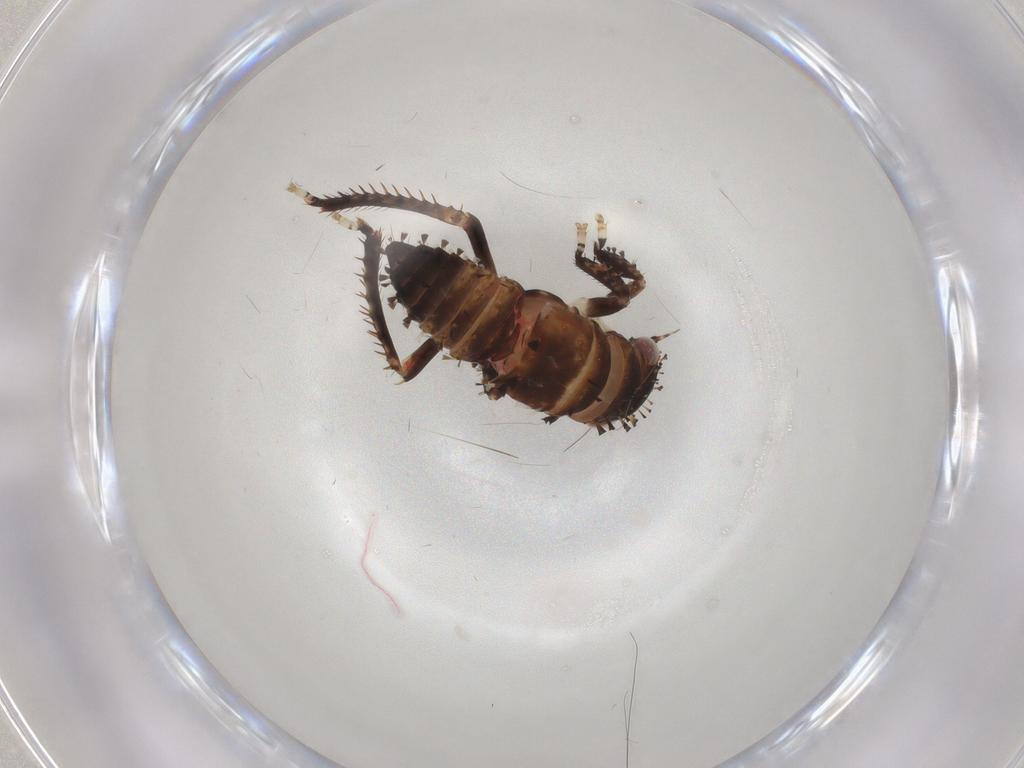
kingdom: Animalia
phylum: Arthropoda
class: Insecta
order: Hemiptera
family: Cicadellidae
